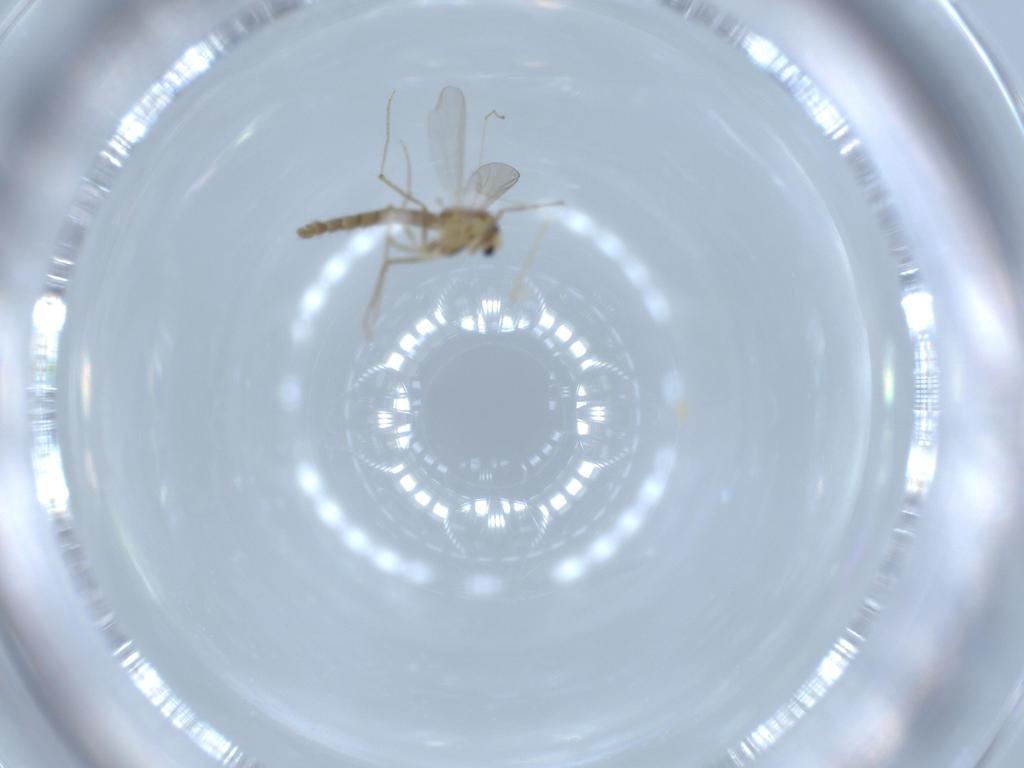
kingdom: Animalia
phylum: Arthropoda
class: Insecta
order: Diptera
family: Chironomidae
